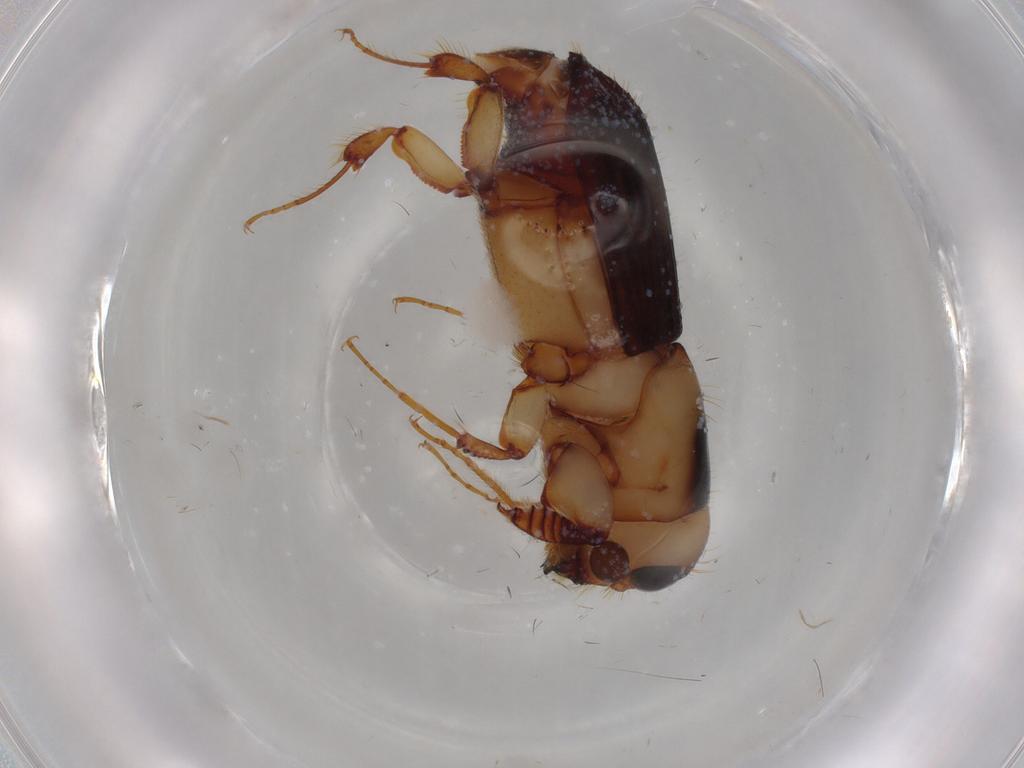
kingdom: Animalia
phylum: Arthropoda
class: Insecta
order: Coleoptera
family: Curculionidae
